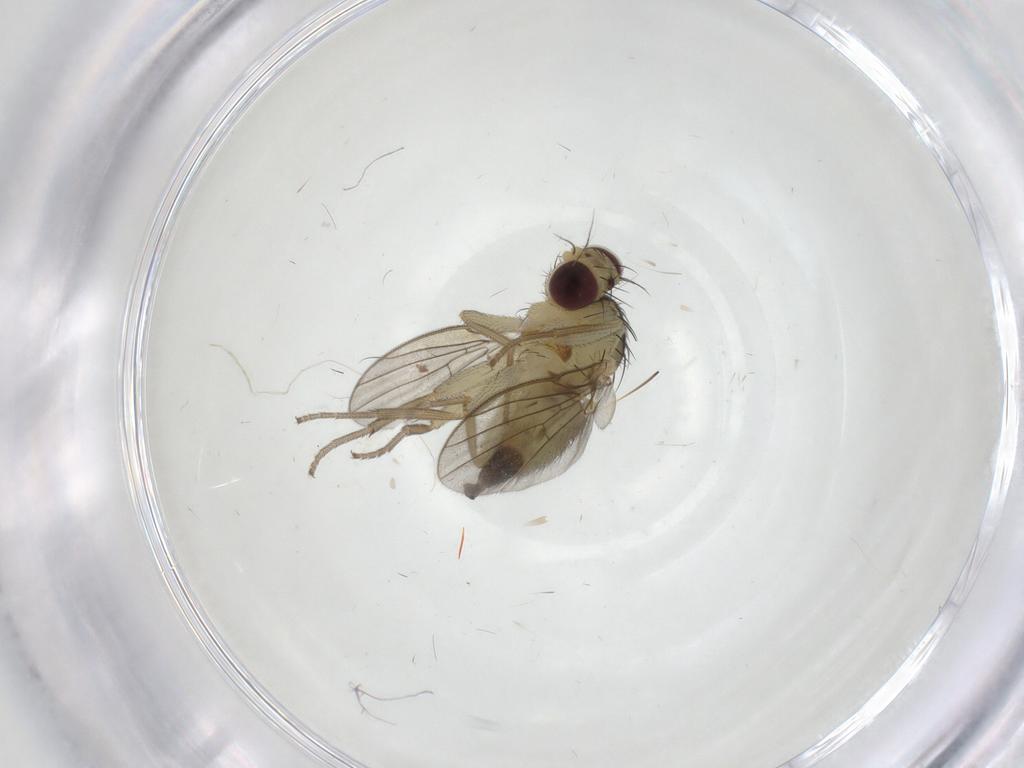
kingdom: Animalia
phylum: Arthropoda
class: Insecta
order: Diptera
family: Agromyzidae
